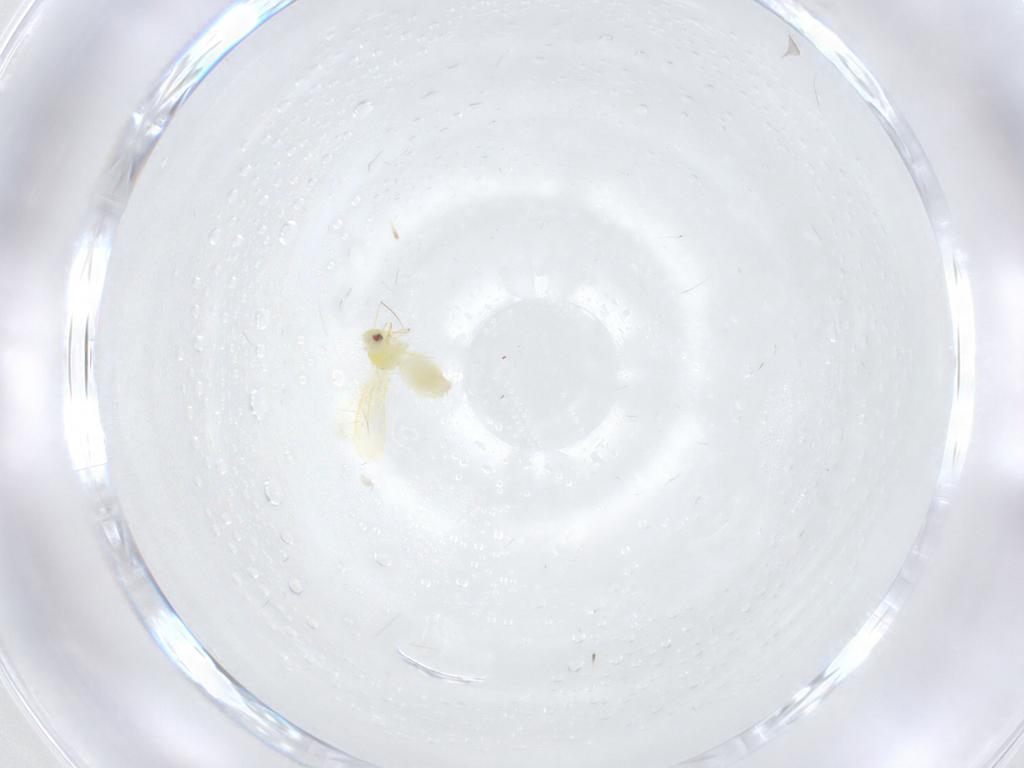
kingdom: Animalia
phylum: Arthropoda
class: Insecta
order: Hemiptera
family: Aleyrodidae
